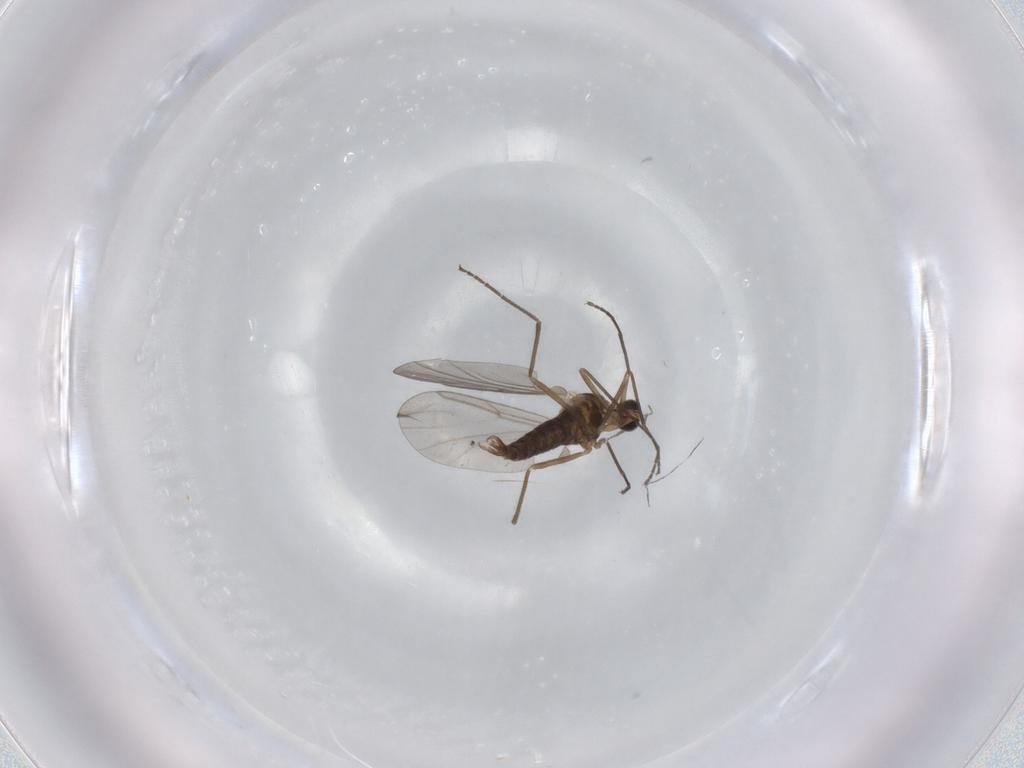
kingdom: Animalia
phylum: Arthropoda
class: Insecta
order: Diptera
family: Cecidomyiidae
